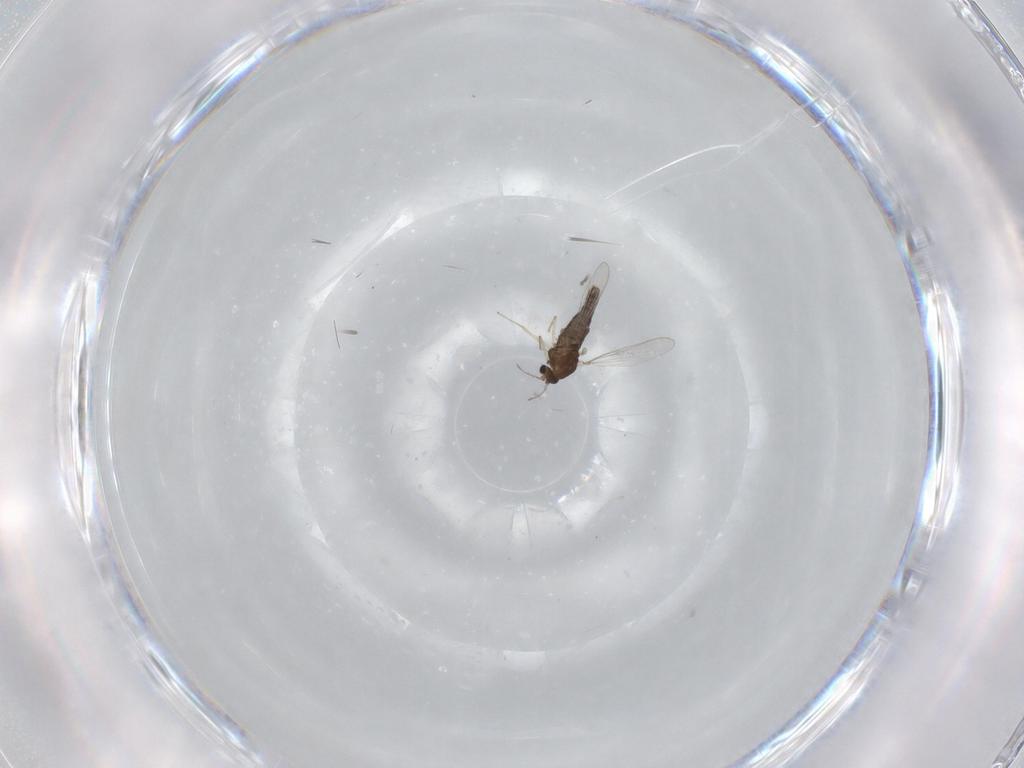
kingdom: Animalia
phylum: Arthropoda
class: Insecta
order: Diptera
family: Chironomidae
